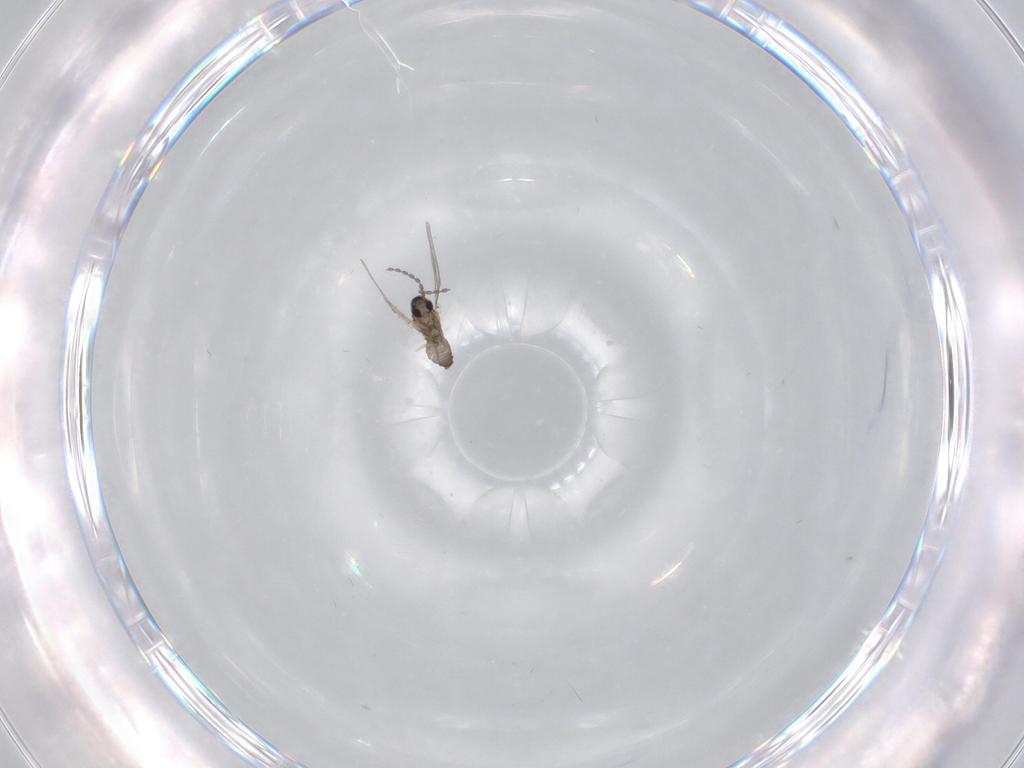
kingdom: Animalia
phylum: Arthropoda
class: Insecta
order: Diptera
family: Cecidomyiidae
